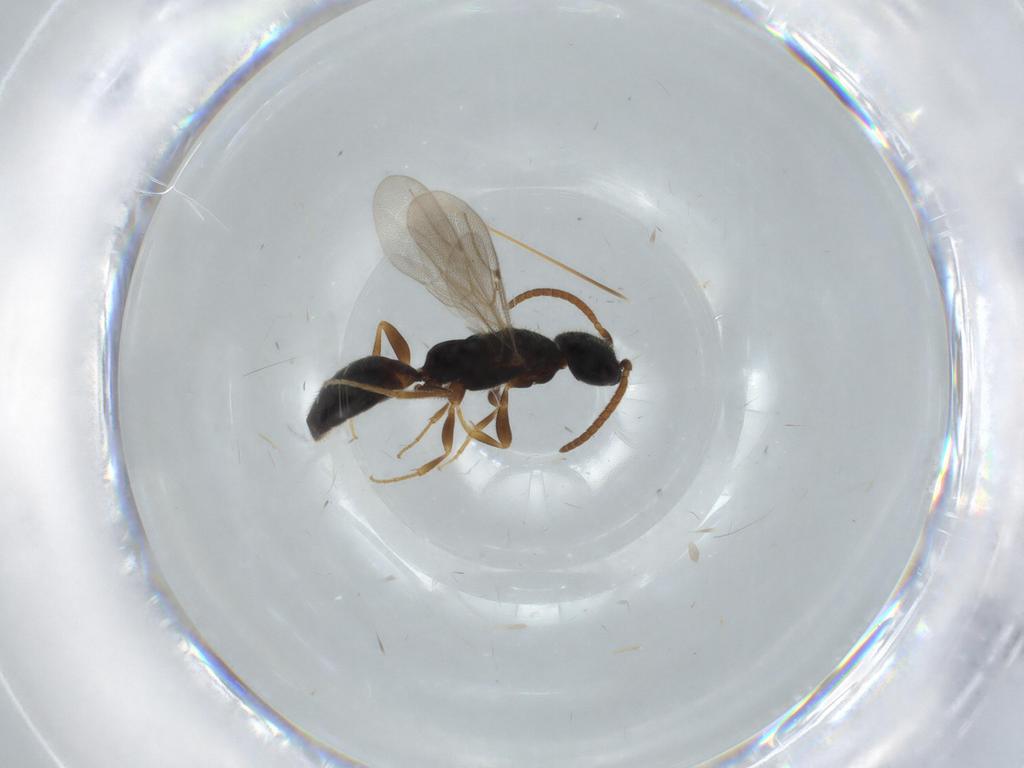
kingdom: Animalia
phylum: Arthropoda
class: Insecta
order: Hymenoptera
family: Bethylidae
